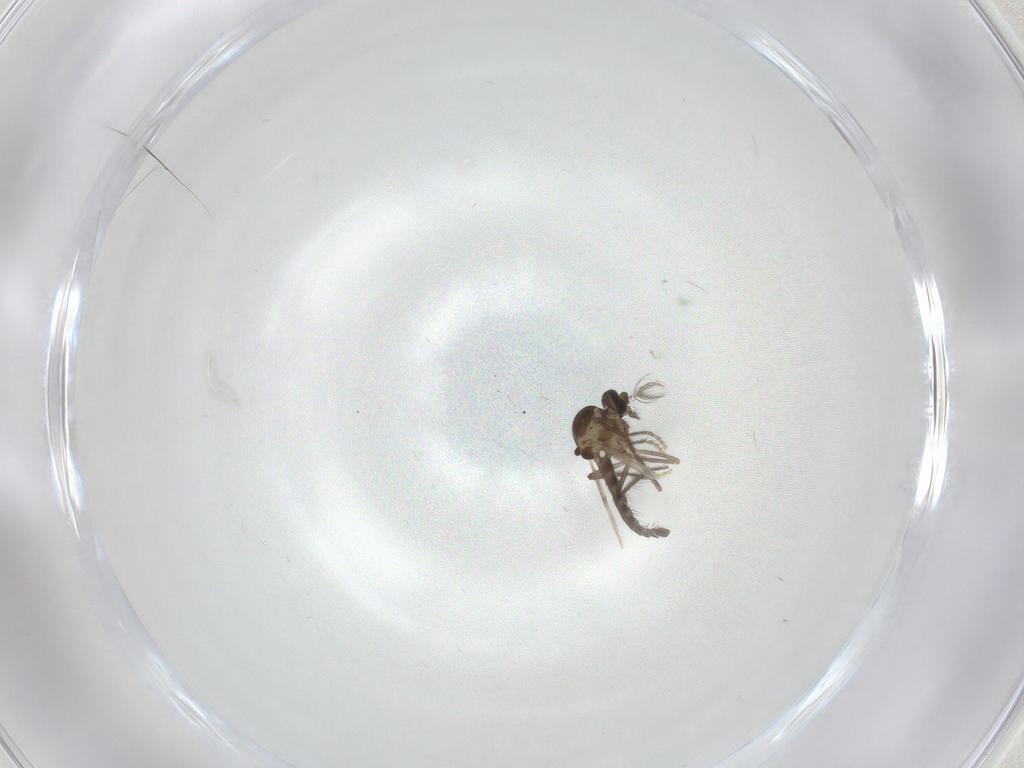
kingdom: Animalia
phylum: Arthropoda
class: Insecta
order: Diptera
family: Ceratopogonidae
